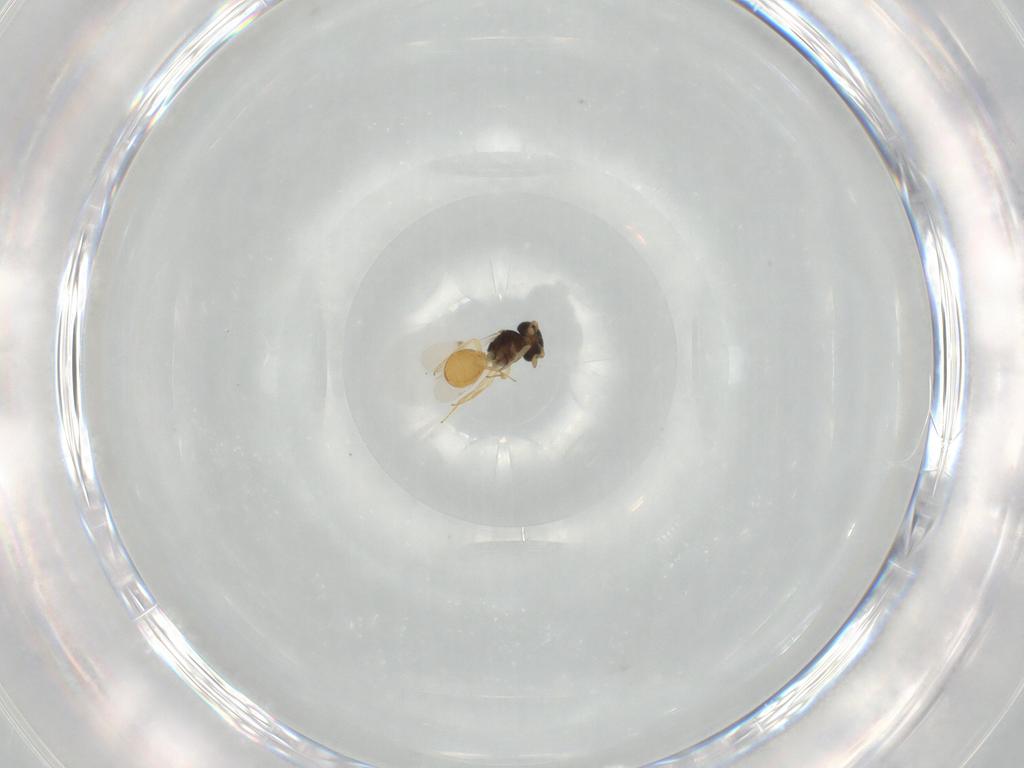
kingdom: Animalia
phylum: Arthropoda
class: Insecta
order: Hymenoptera
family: Scelionidae
